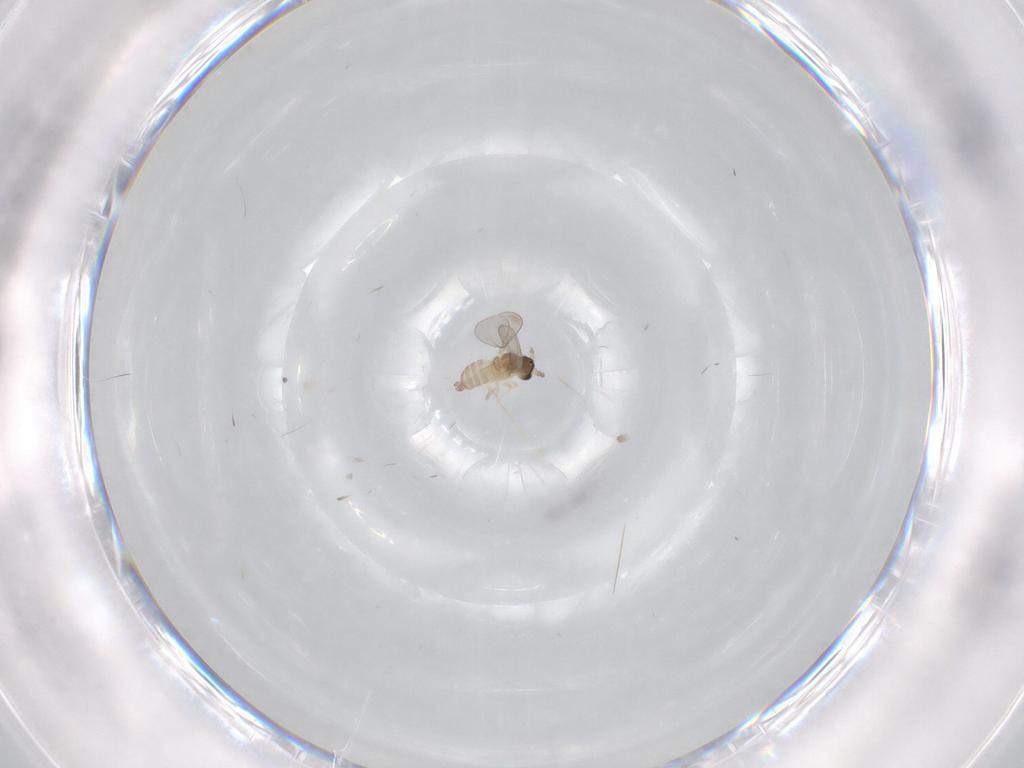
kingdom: Animalia
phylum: Arthropoda
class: Insecta
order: Diptera
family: Cecidomyiidae
